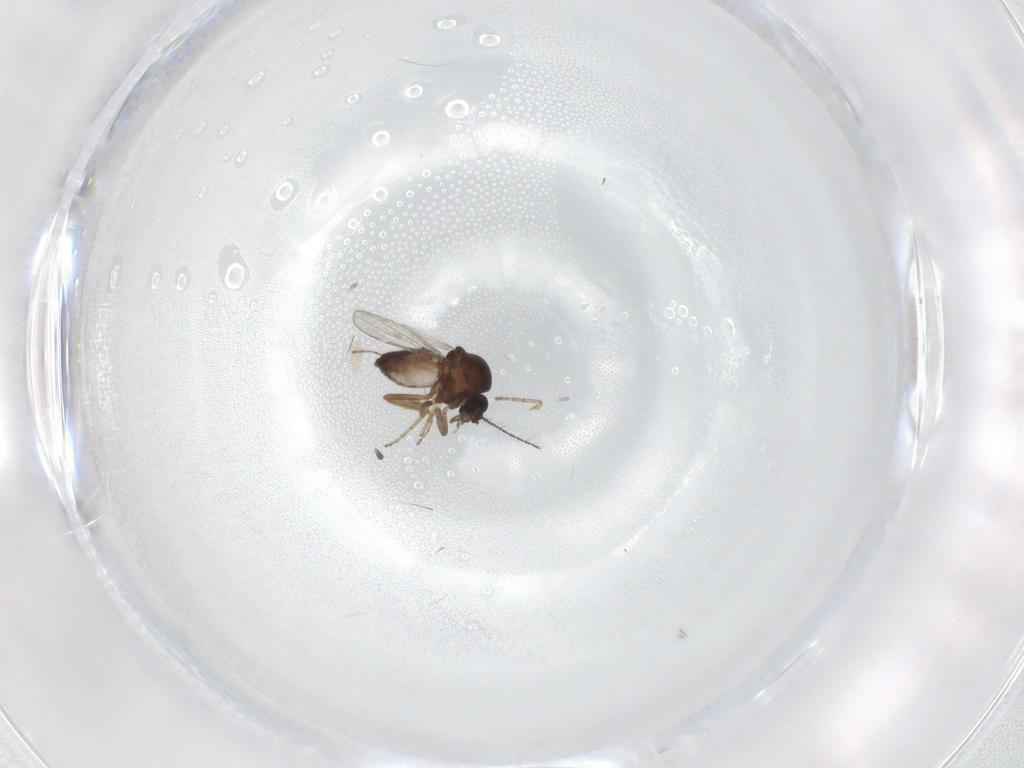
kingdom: Animalia
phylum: Arthropoda
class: Insecta
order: Diptera
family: Ceratopogonidae
